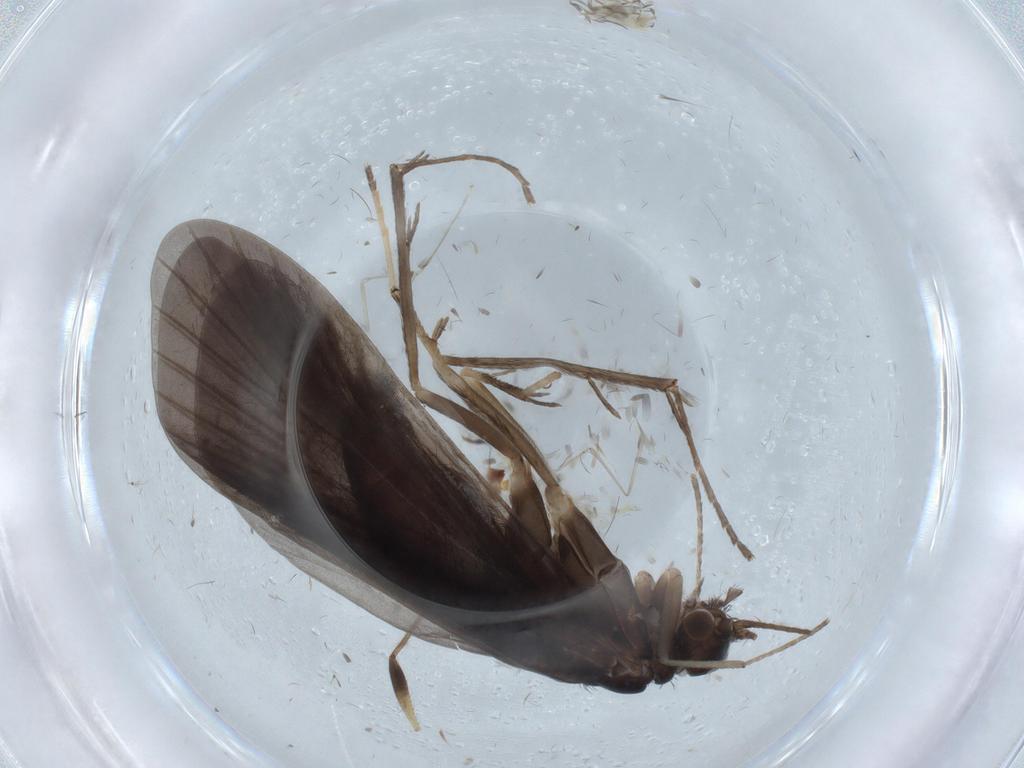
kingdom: Animalia
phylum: Arthropoda
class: Insecta
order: Trichoptera
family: Hydropsychidae
